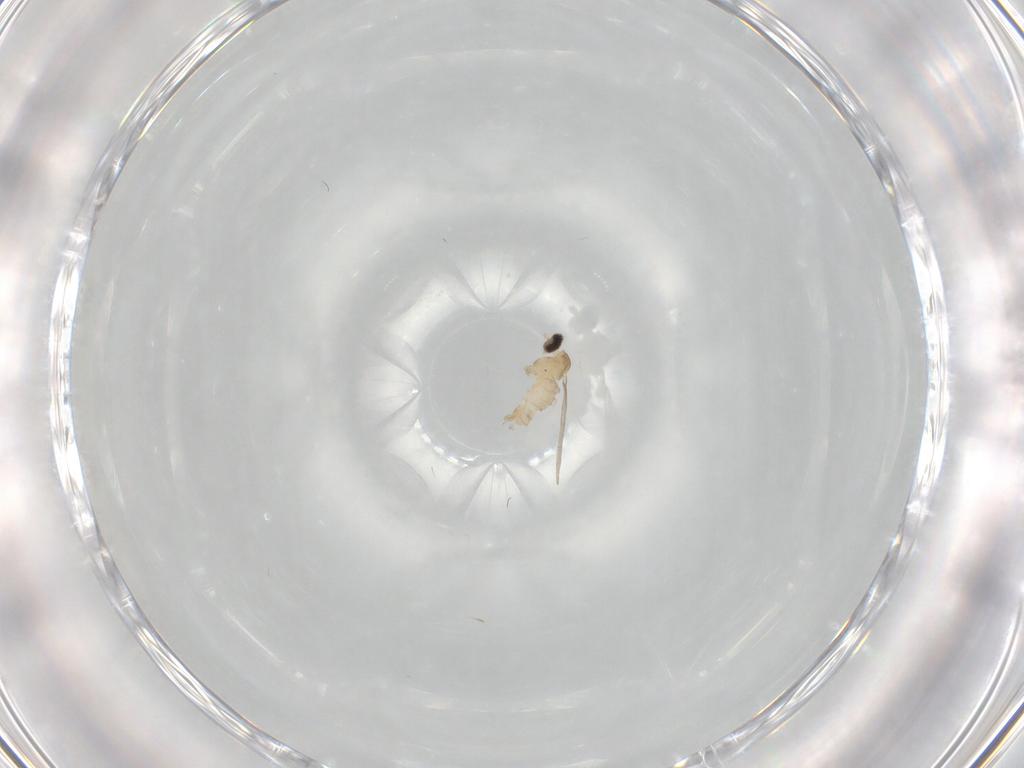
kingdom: Animalia
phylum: Arthropoda
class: Insecta
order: Diptera
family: Cecidomyiidae
